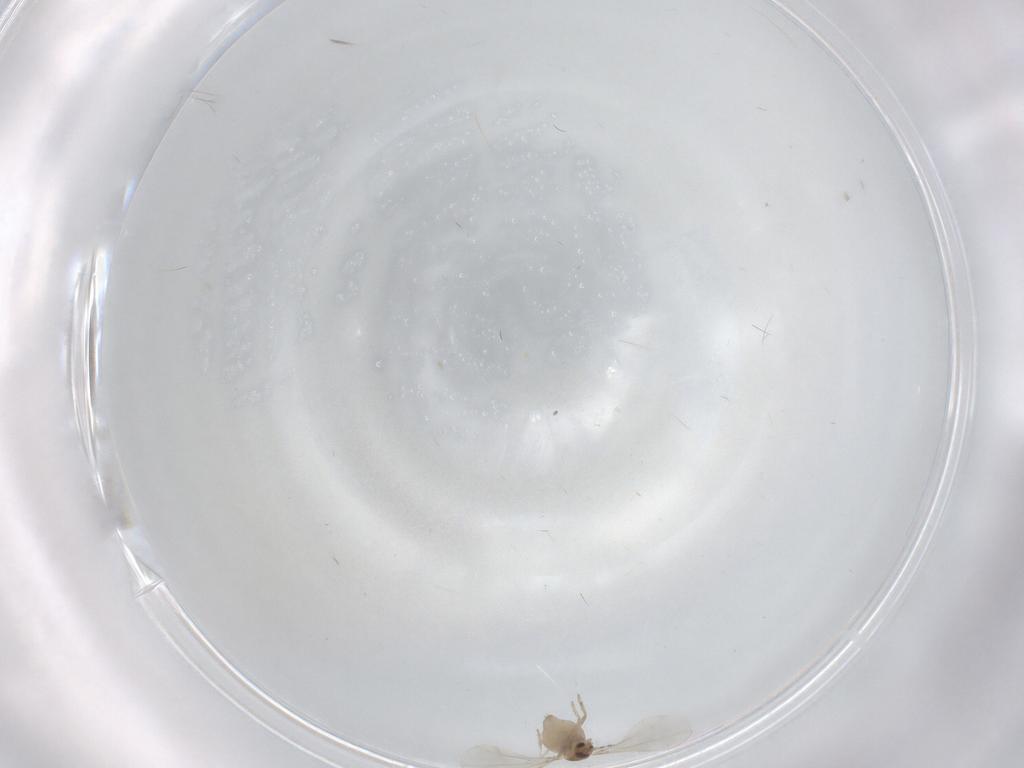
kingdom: Animalia
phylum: Arthropoda
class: Insecta
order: Diptera
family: Cecidomyiidae
